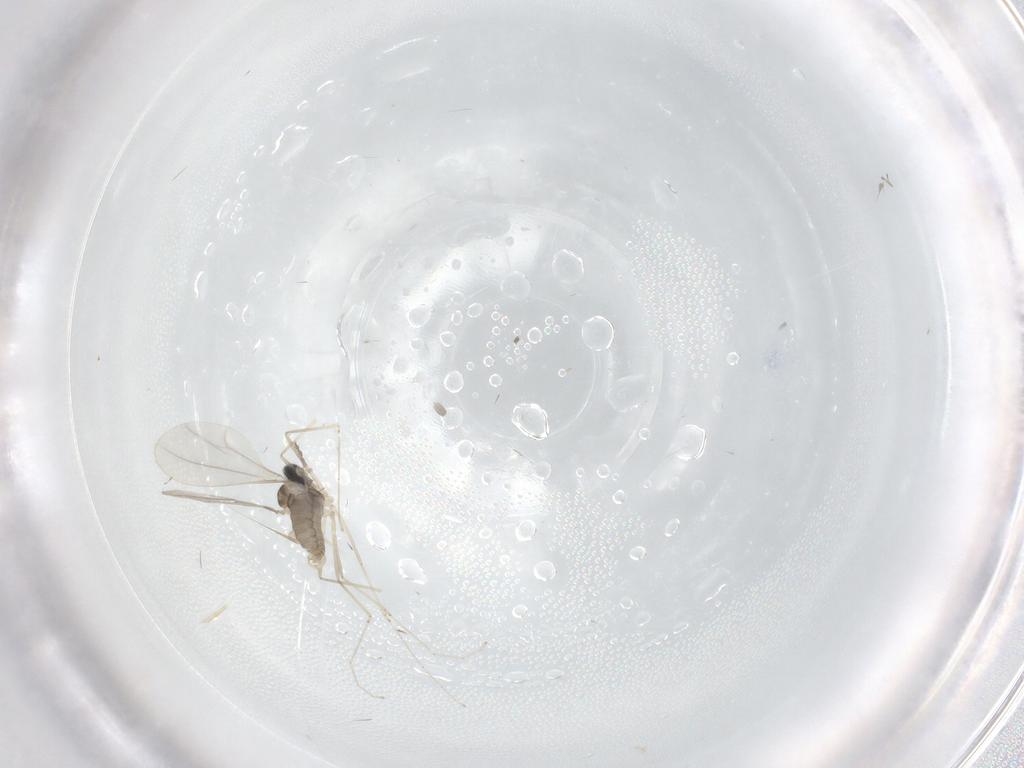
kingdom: Animalia
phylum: Arthropoda
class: Insecta
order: Diptera
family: Cecidomyiidae
